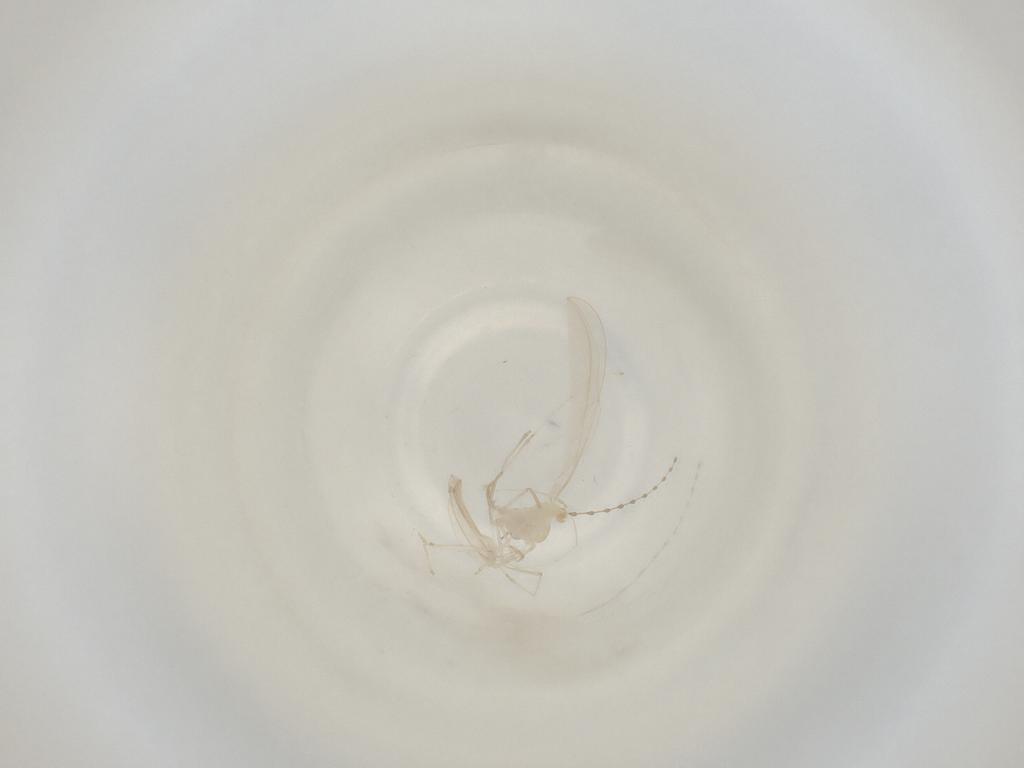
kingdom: Animalia
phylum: Arthropoda
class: Insecta
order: Diptera
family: Cecidomyiidae
